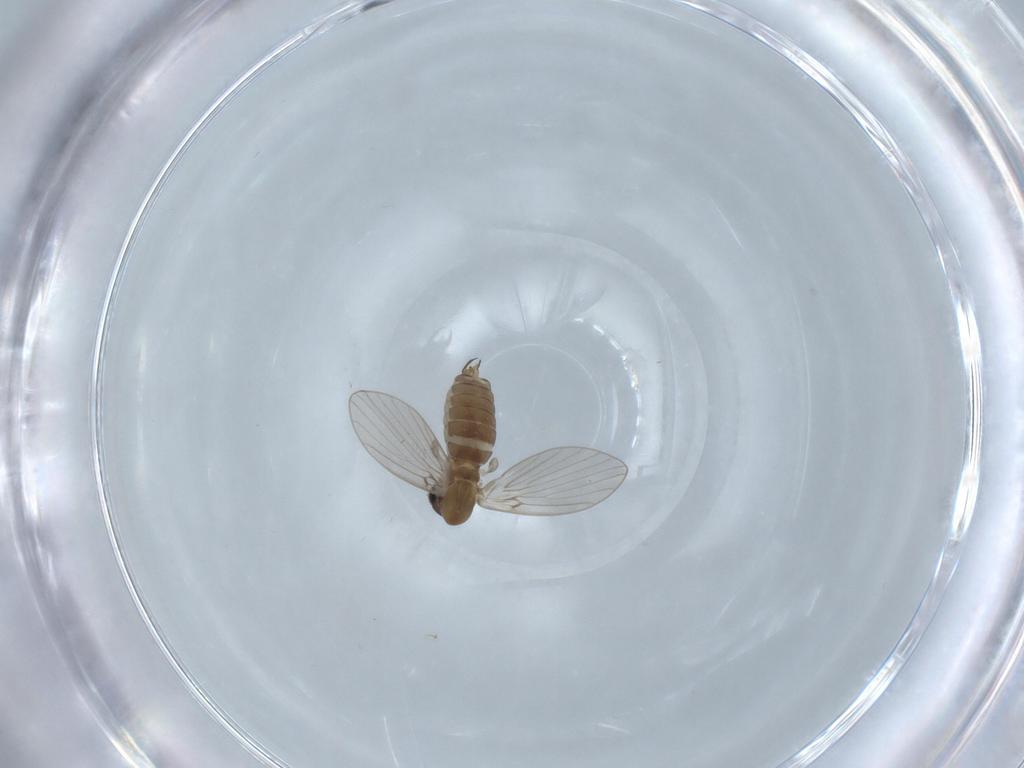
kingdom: Animalia
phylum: Arthropoda
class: Insecta
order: Diptera
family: Psychodidae
